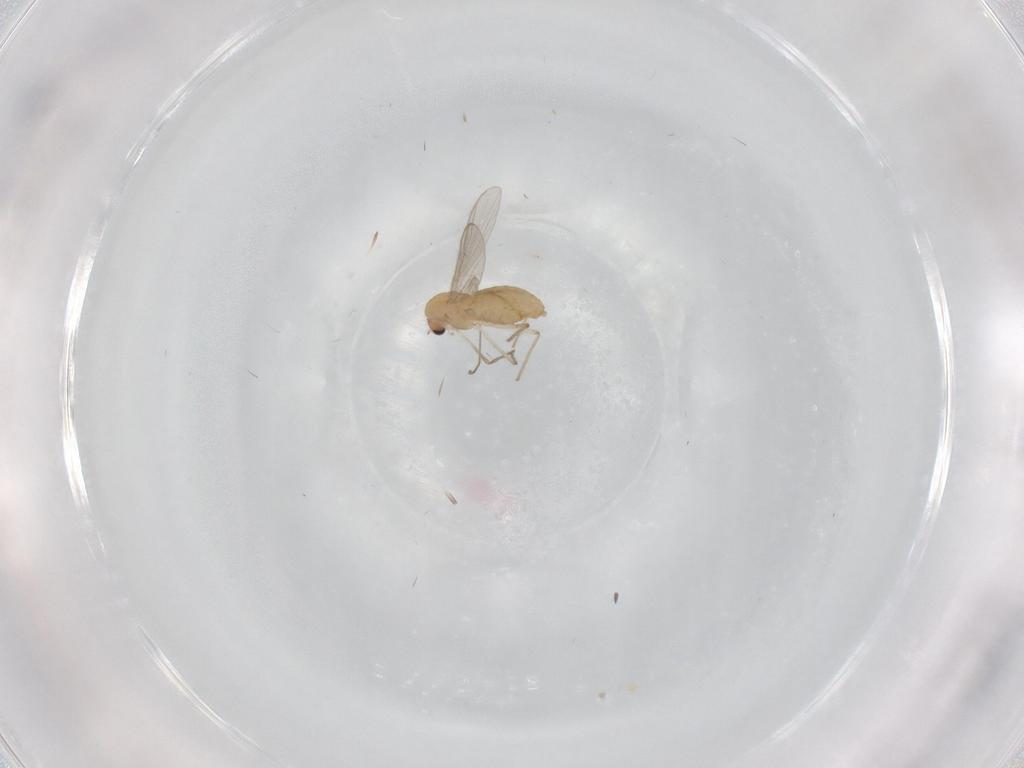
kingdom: Animalia
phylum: Arthropoda
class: Insecta
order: Diptera
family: Chironomidae
